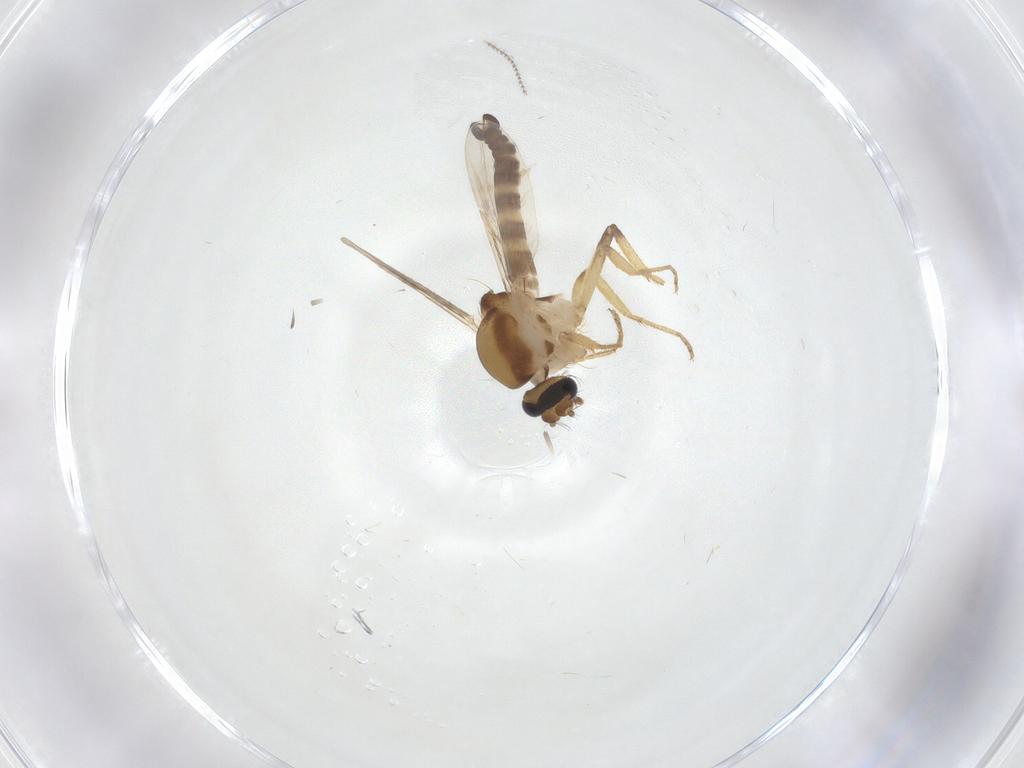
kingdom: Animalia
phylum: Arthropoda
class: Insecta
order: Diptera
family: Ceratopogonidae
